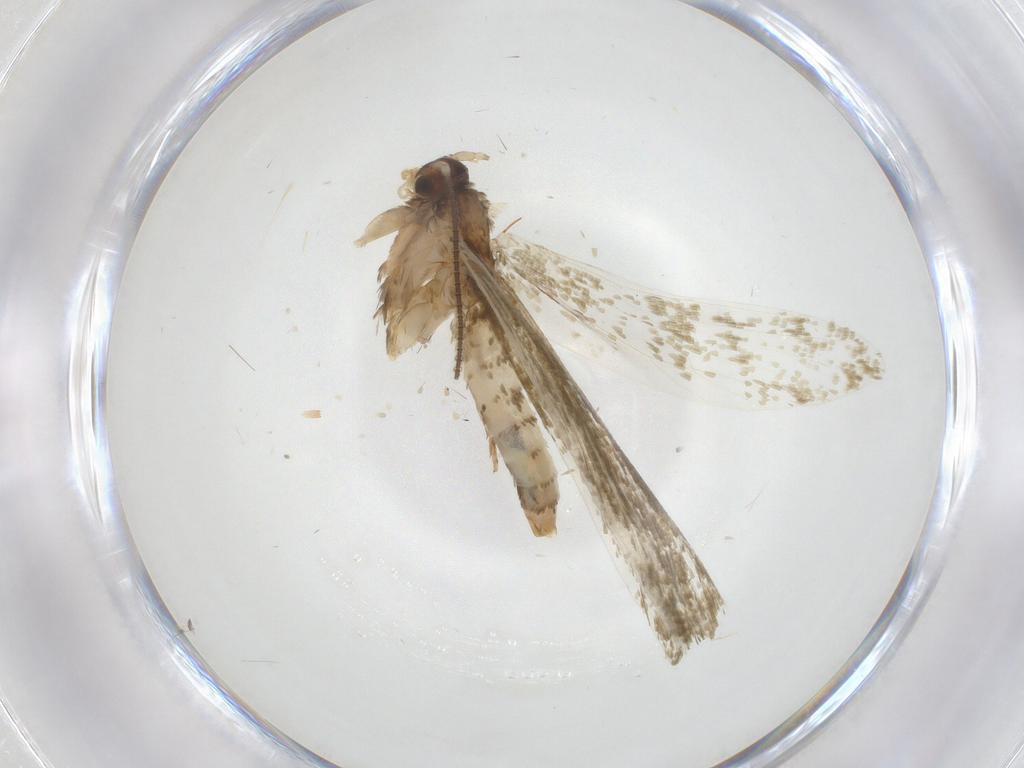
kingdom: Animalia
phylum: Arthropoda
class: Insecta
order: Lepidoptera
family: Tineidae
